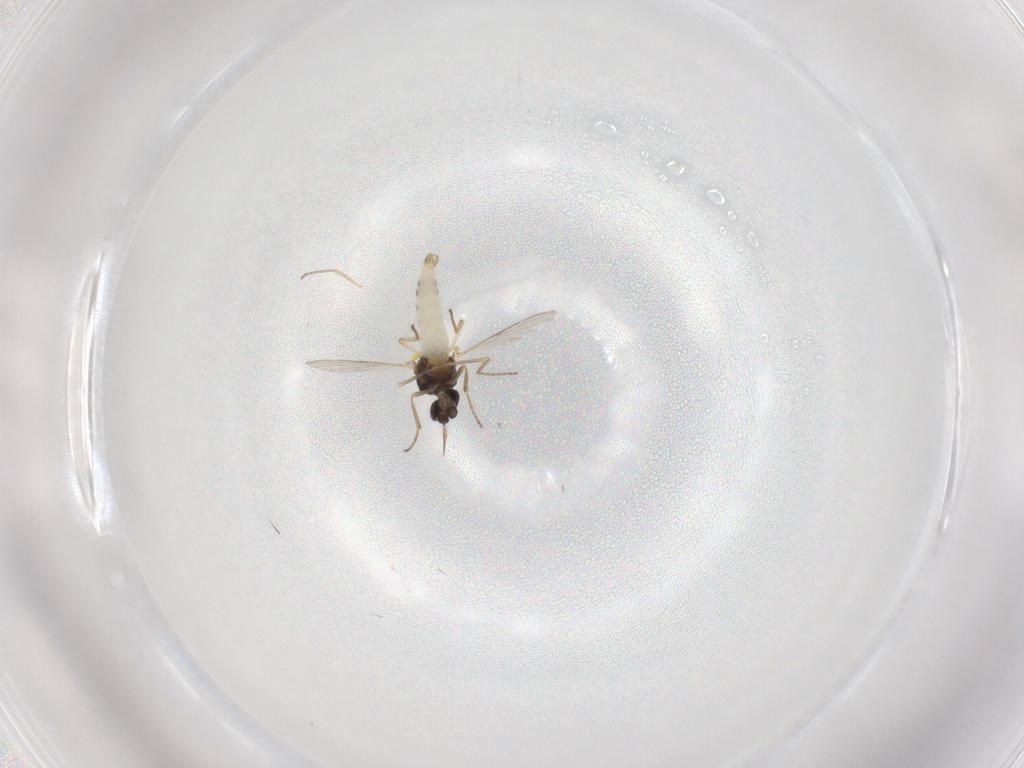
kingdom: Animalia
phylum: Arthropoda
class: Insecta
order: Diptera
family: Ceratopogonidae
